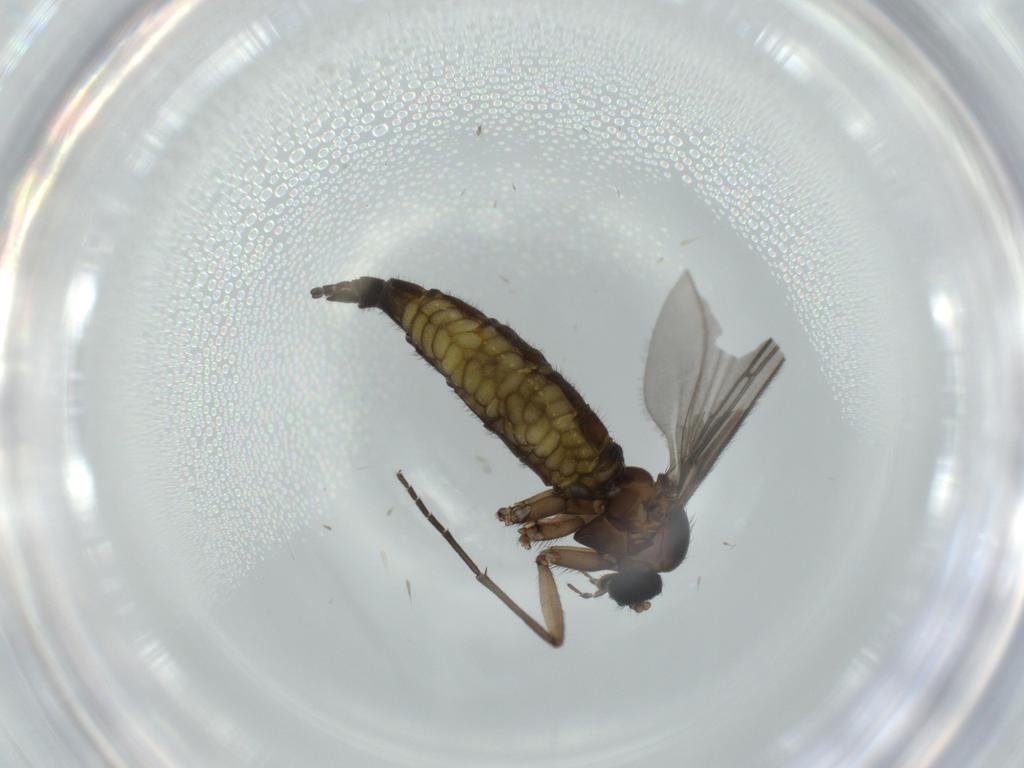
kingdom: Animalia
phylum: Arthropoda
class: Insecta
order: Diptera
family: Sciaridae
